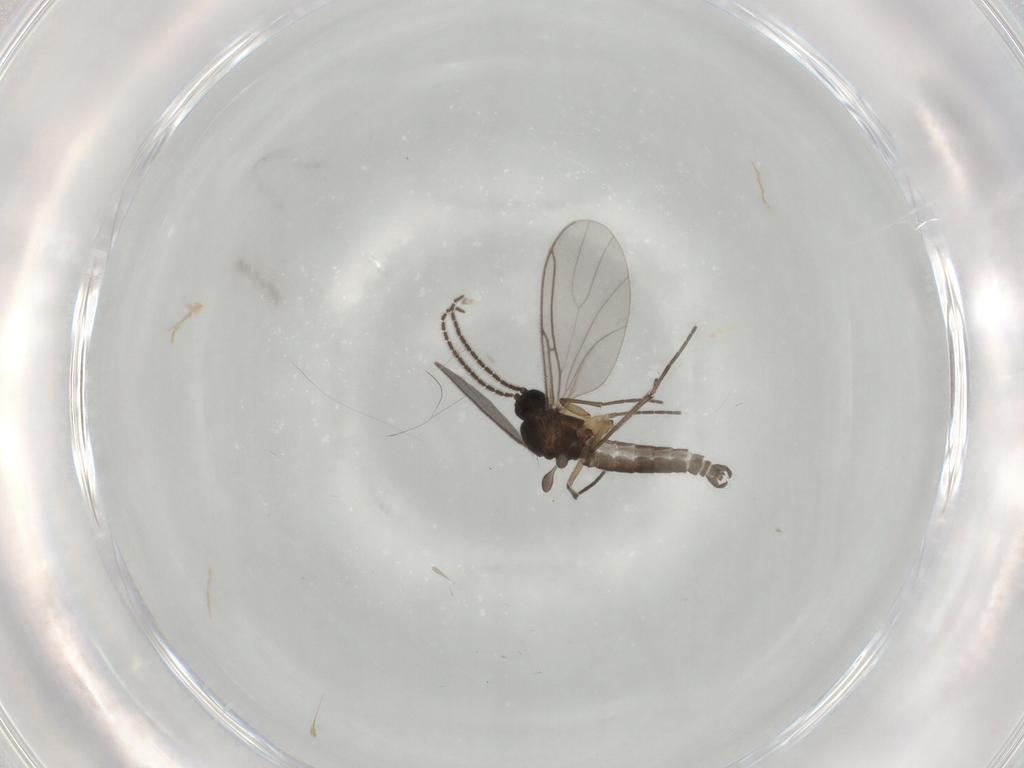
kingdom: Animalia
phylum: Arthropoda
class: Insecta
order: Diptera
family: Sciaridae
